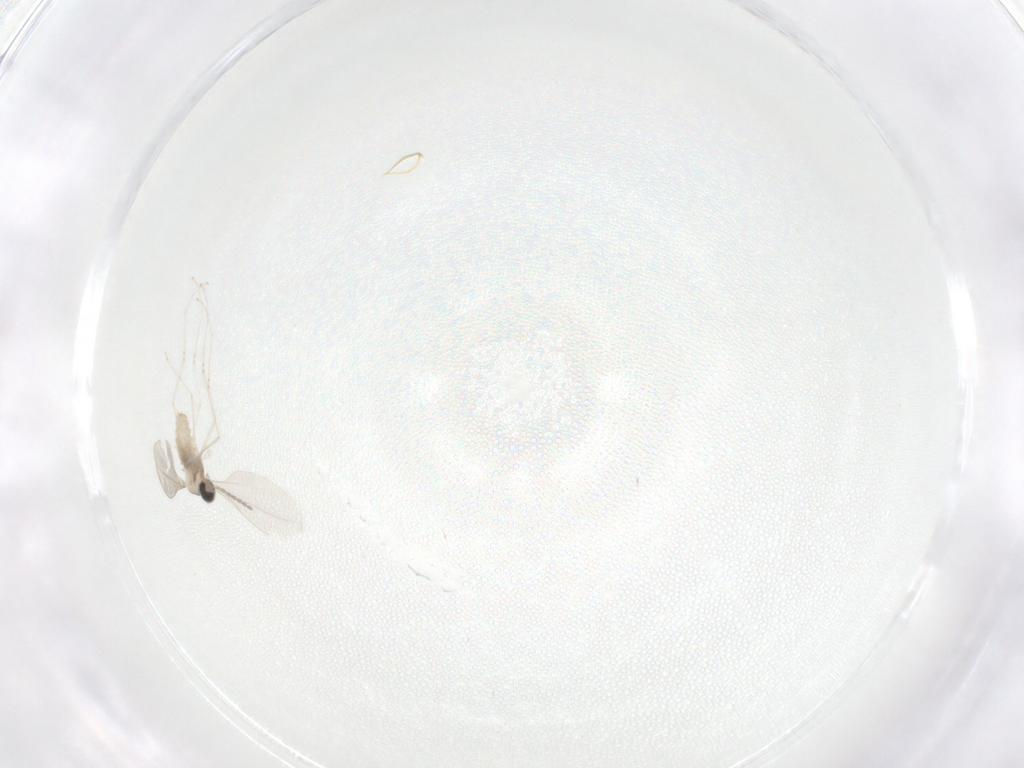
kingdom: Animalia
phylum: Arthropoda
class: Insecta
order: Diptera
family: Cecidomyiidae
